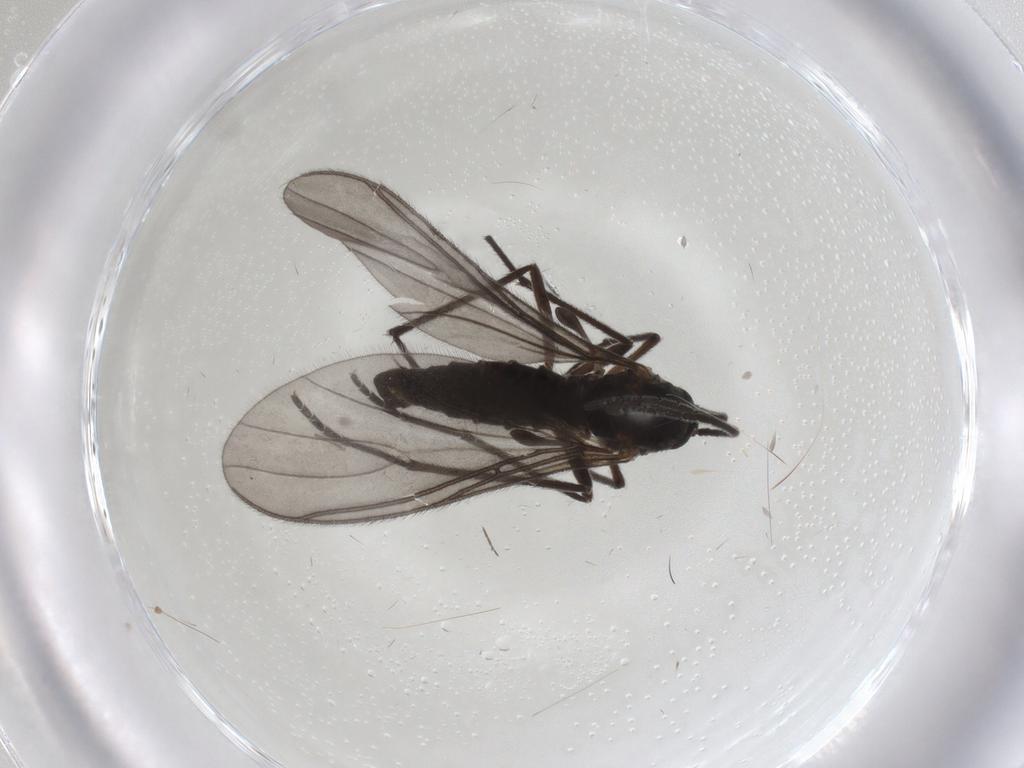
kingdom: Animalia
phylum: Arthropoda
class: Insecta
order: Diptera
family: Sciaridae
